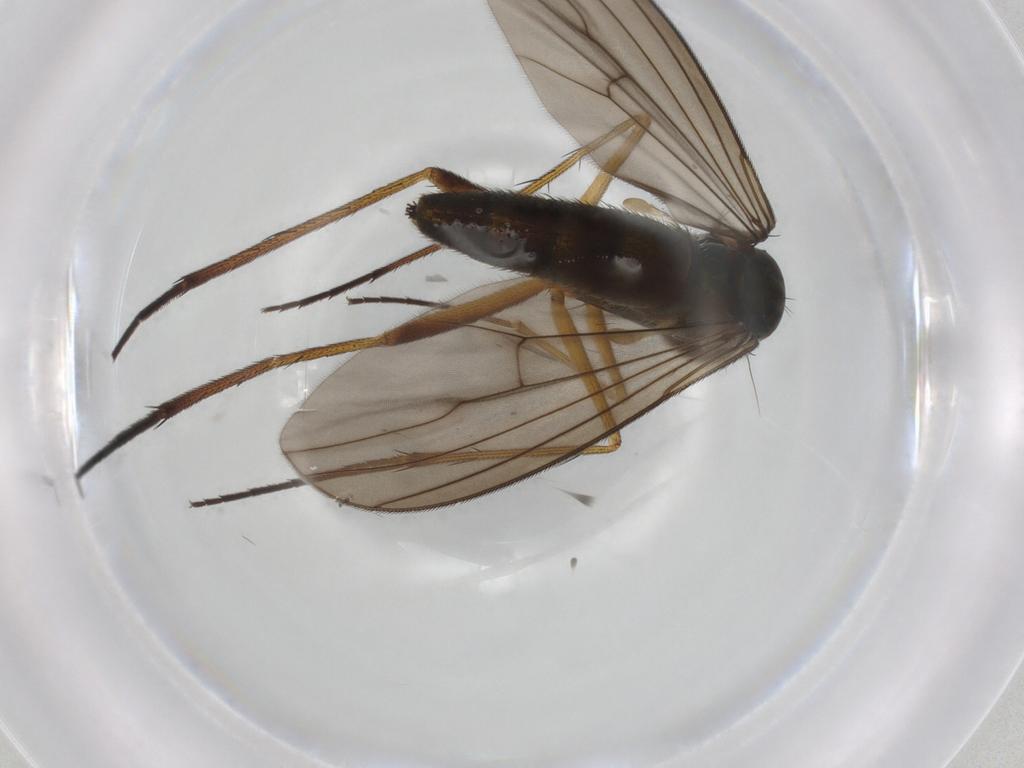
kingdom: Animalia
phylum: Arthropoda
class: Insecta
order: Diptera
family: Dolichopodidae
